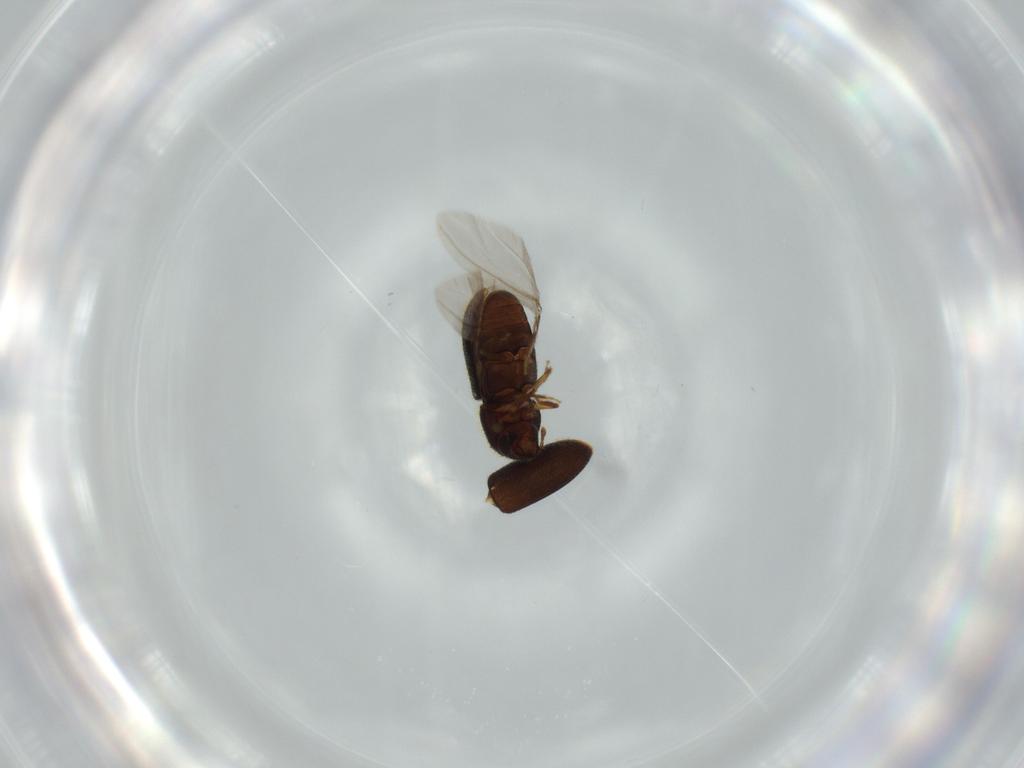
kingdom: Animalia
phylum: Arthropoda
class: Insecta
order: Coleoptera
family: Curculionidae
